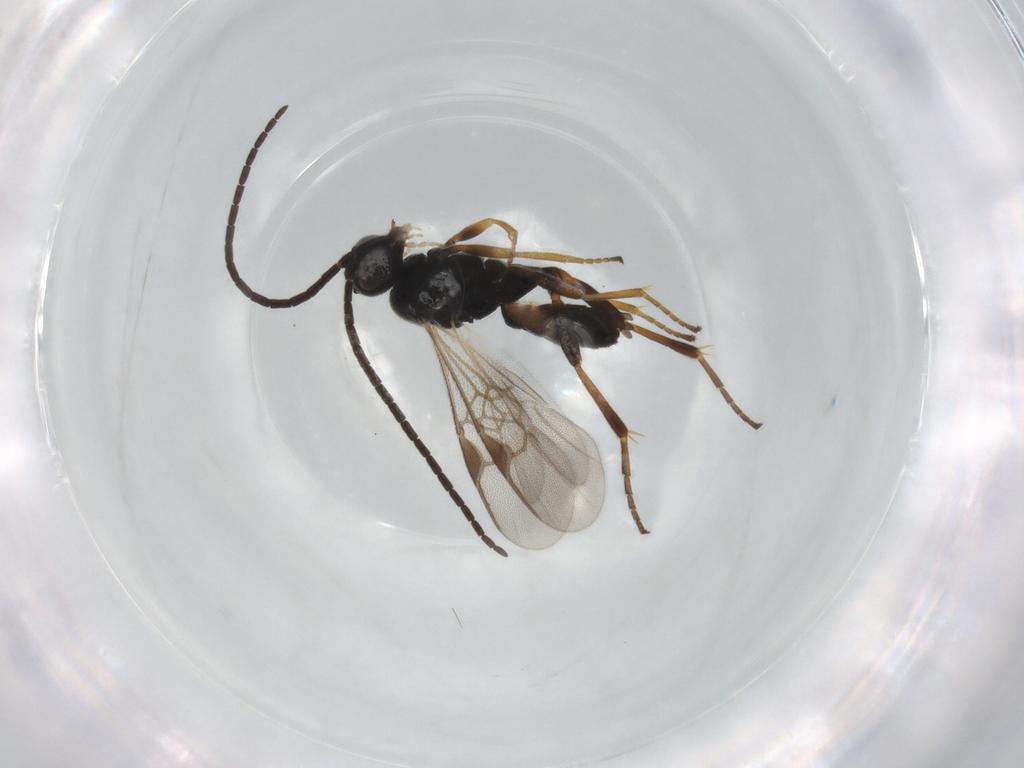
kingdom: Animalia
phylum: Arthropoda
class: Insecta
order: Hymenoptera
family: Braconidae
